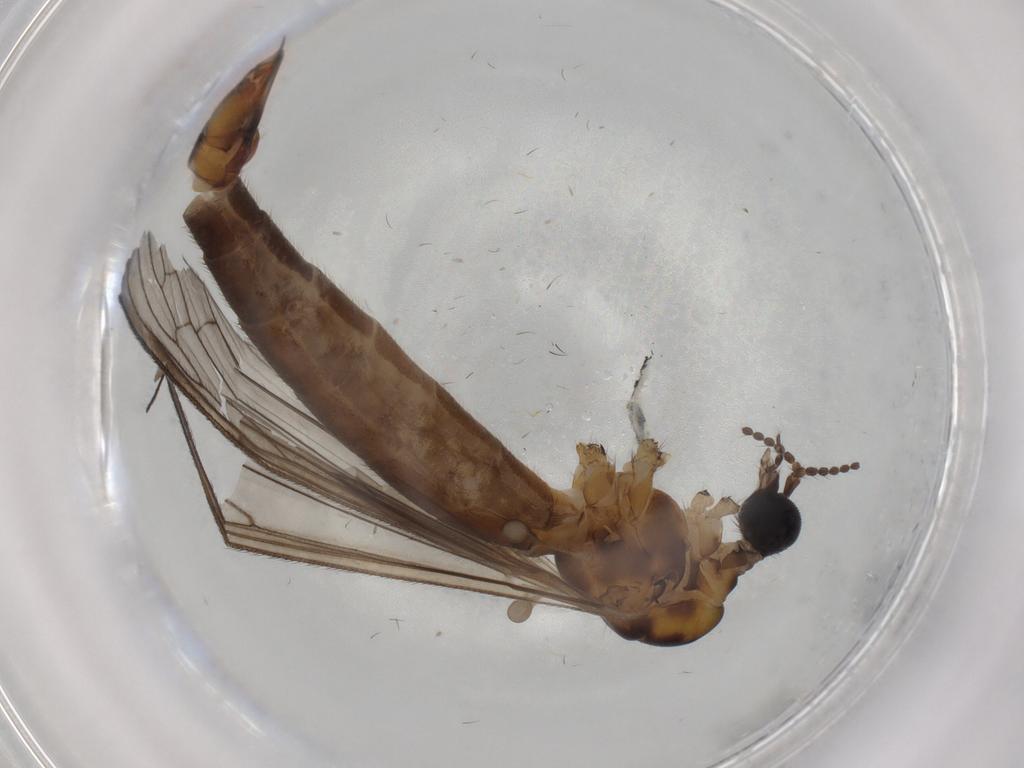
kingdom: Animalia
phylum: Arthropoda
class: Insecta
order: Diptera
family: Limoniidae
